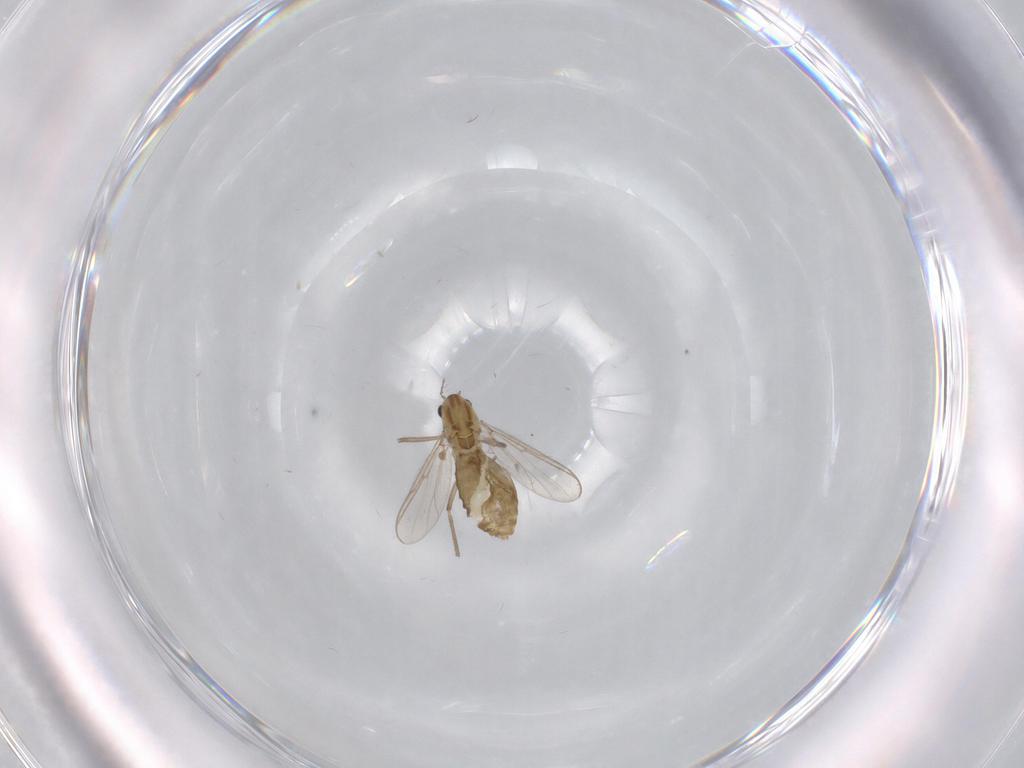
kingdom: Animalia
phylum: Arthropoda
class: Insecta
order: Diptera
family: Chironomidae
